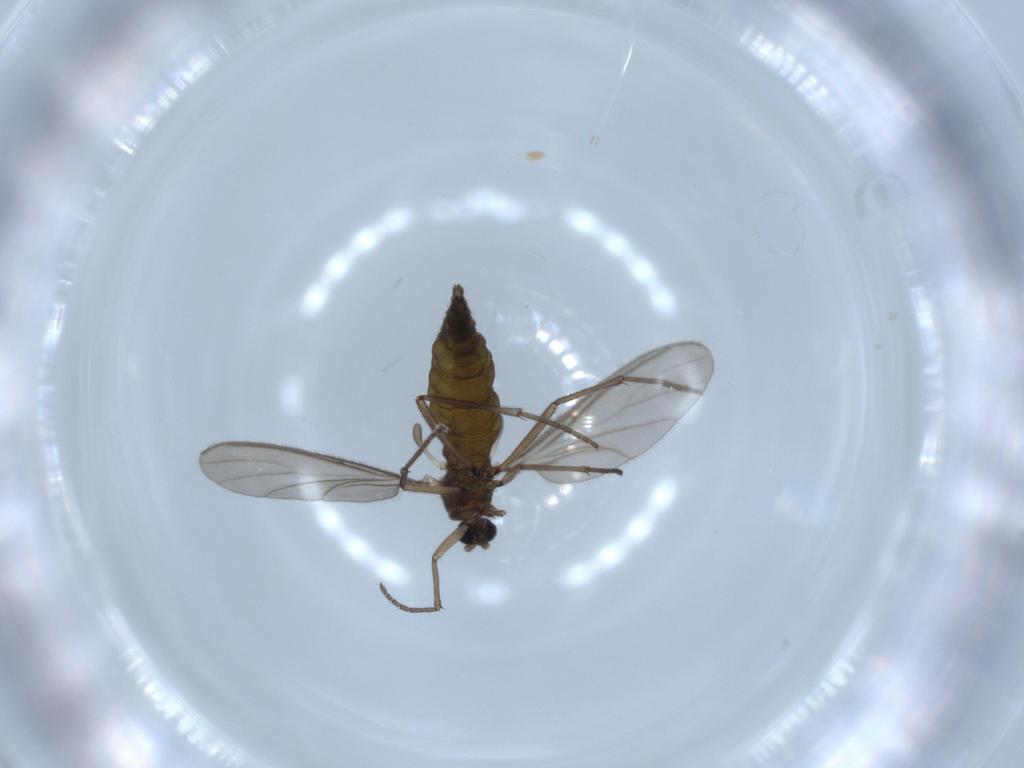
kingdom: Animalia
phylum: Arthropoda
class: Insecta
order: Diptera
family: Sciaridae
